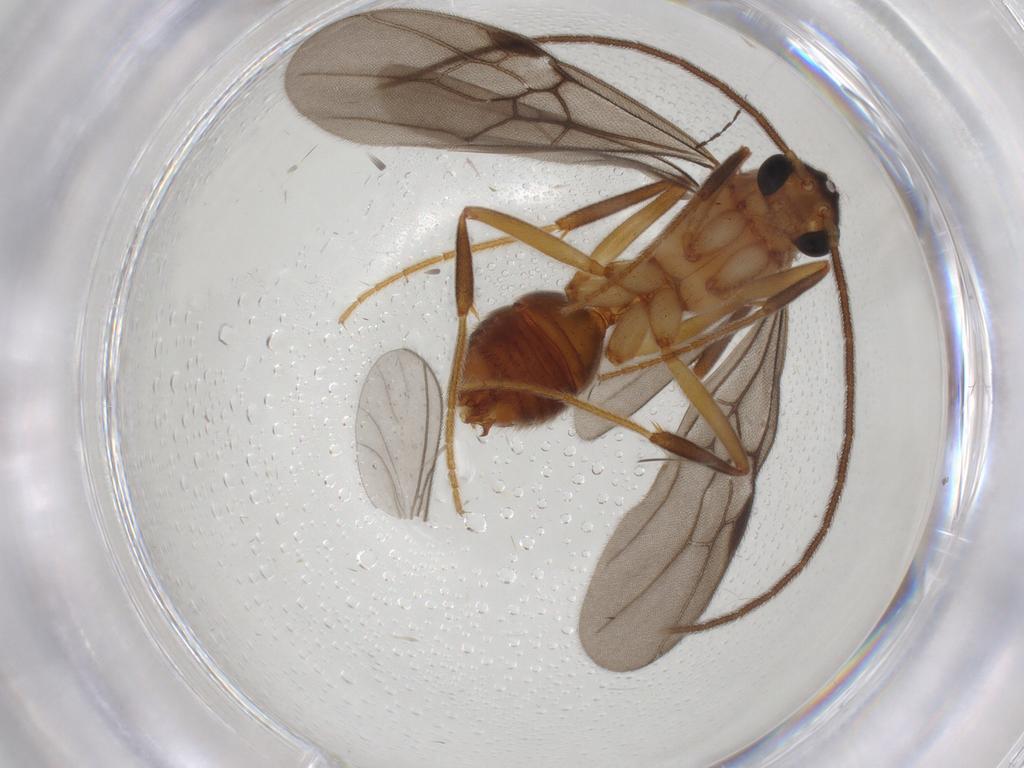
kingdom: Animalia
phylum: Arthropoda
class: Insecta
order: Hymenoptera
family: Formicidae
